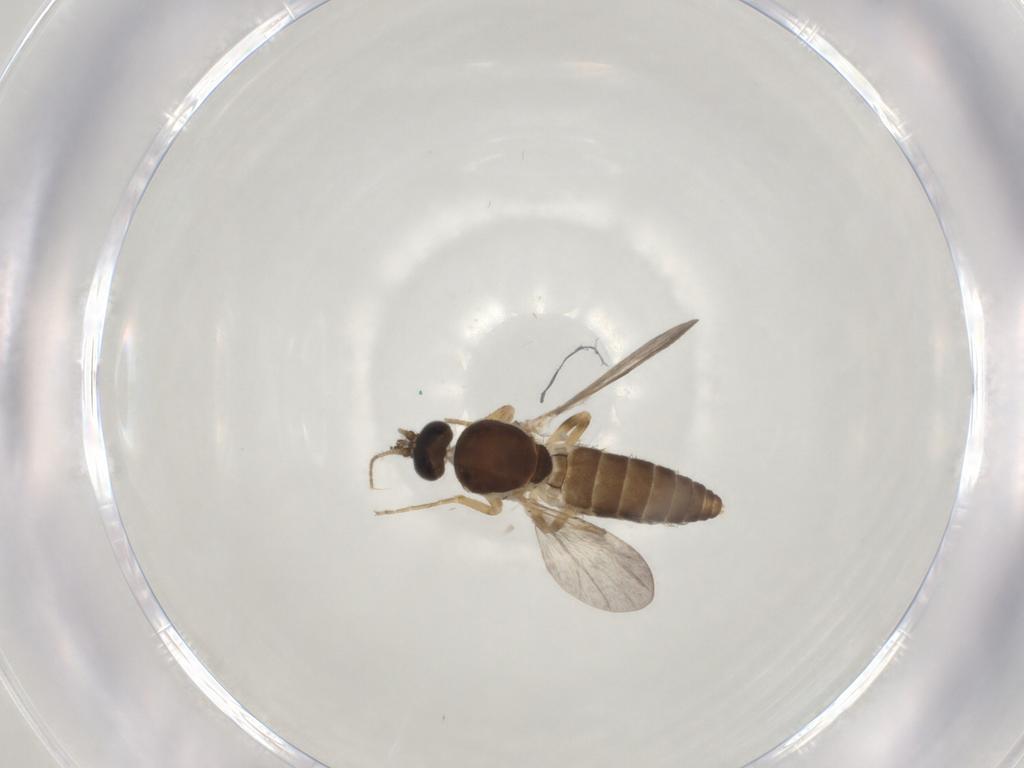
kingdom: Animalia
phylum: Arthropoda
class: Insecta
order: Diptera
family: Ceratopogonidae
